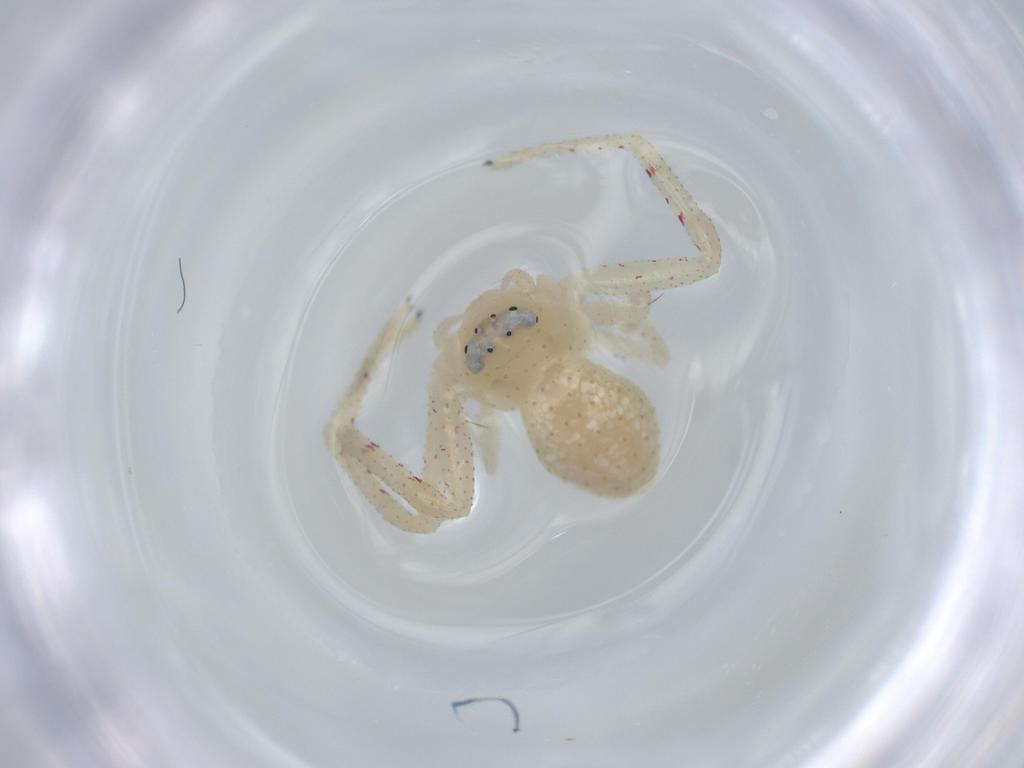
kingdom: Animalia
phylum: Arthropoda
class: Arachnida
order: Araneae
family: Thomisidae
